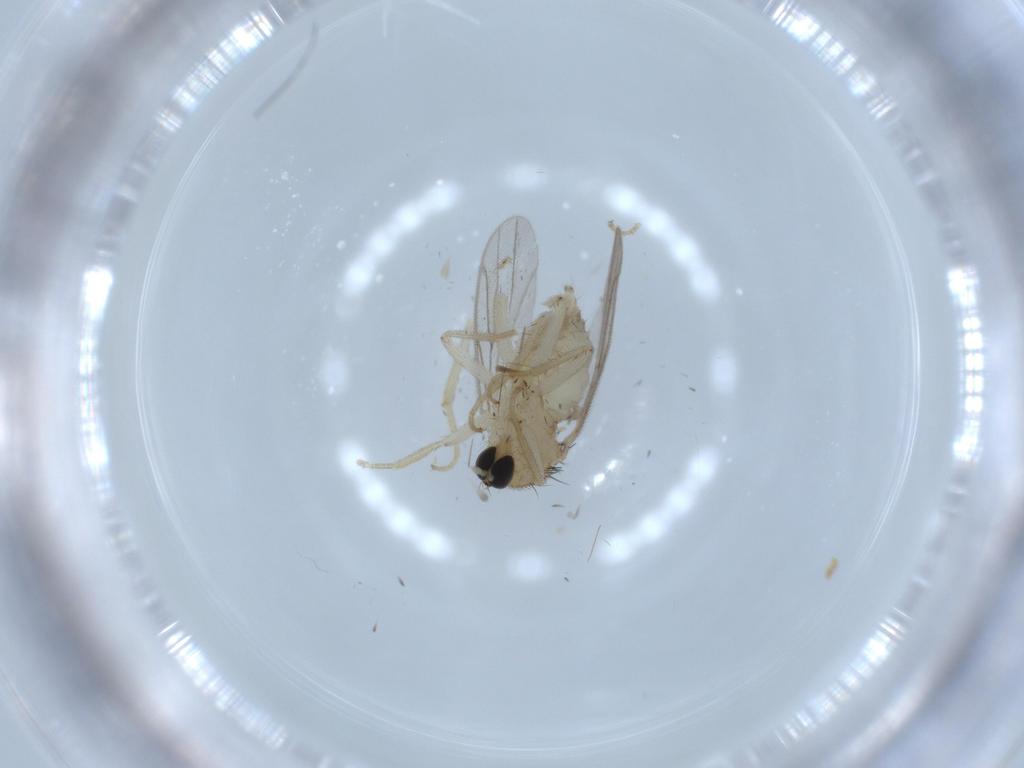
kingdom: Animalia
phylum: Arthropoda
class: Insecta
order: Diptera
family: Hybotidae
